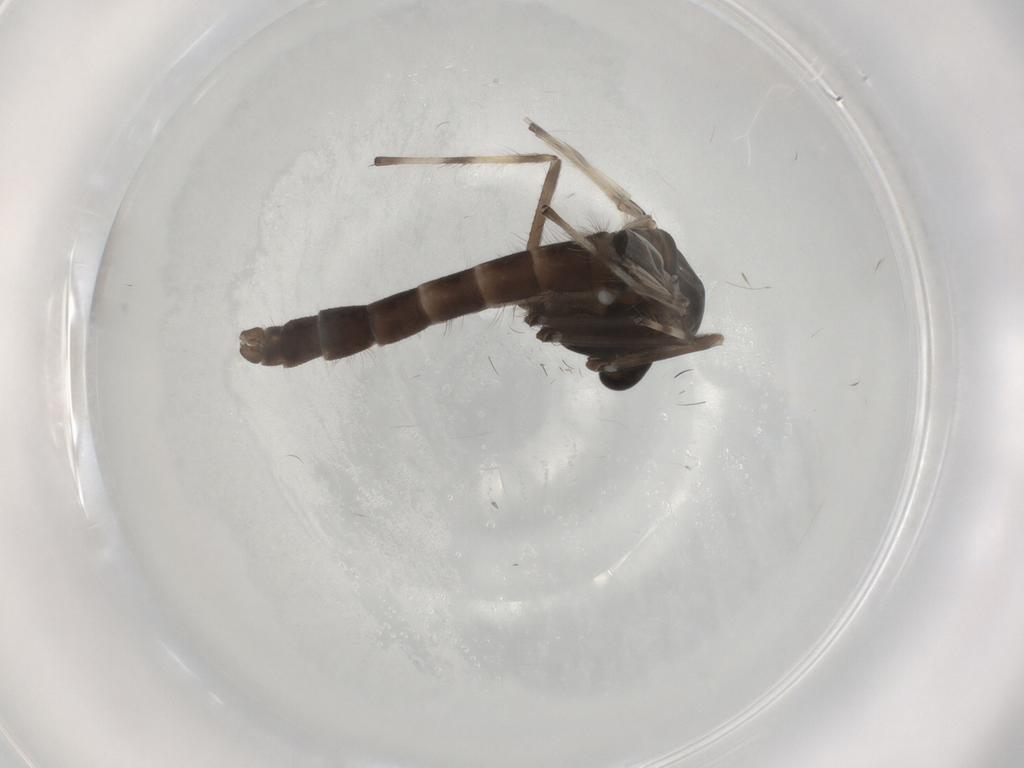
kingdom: Animalia
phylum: Arthropoda
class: Insecta
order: Diptera
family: Chironomidae
